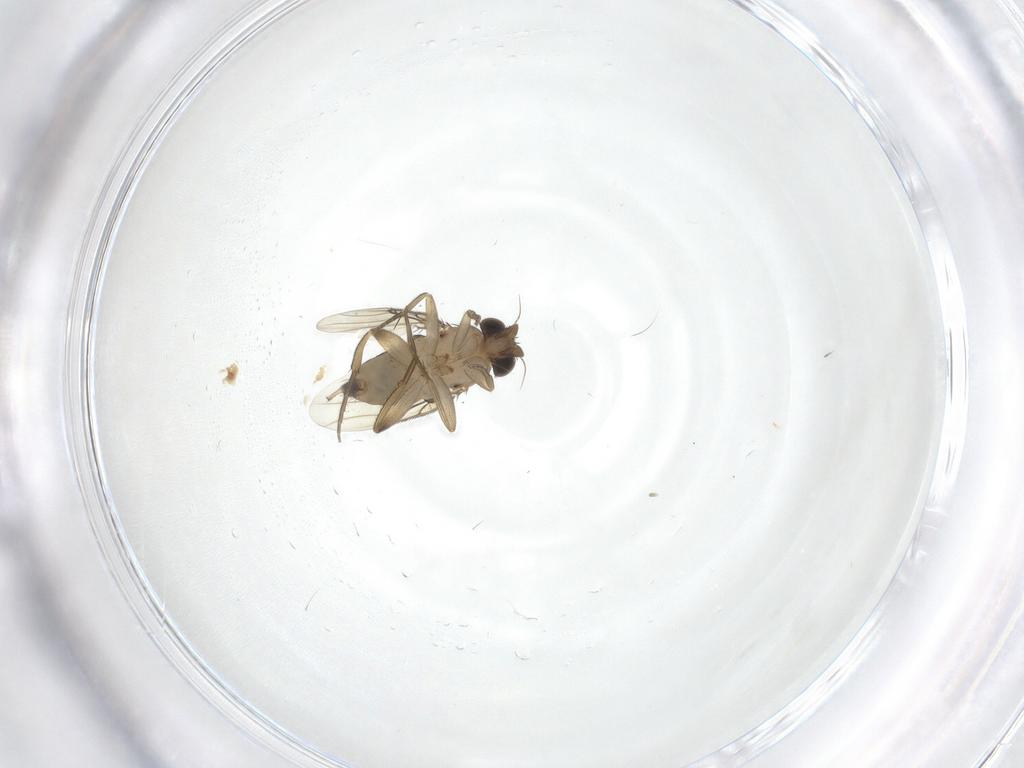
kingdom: Animalia
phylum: Arthropoda
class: Insecta
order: Diptera
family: Phoridae
